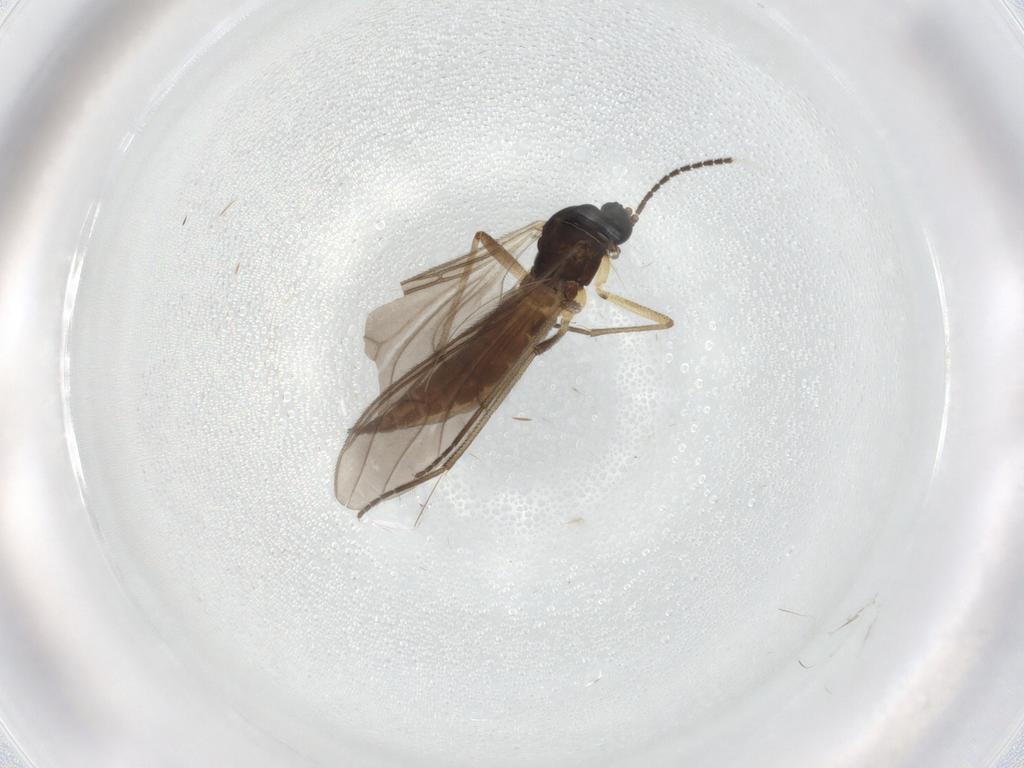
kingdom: Animalia
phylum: Arthropoda
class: Insecta
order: Diptera
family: Sciaridae
